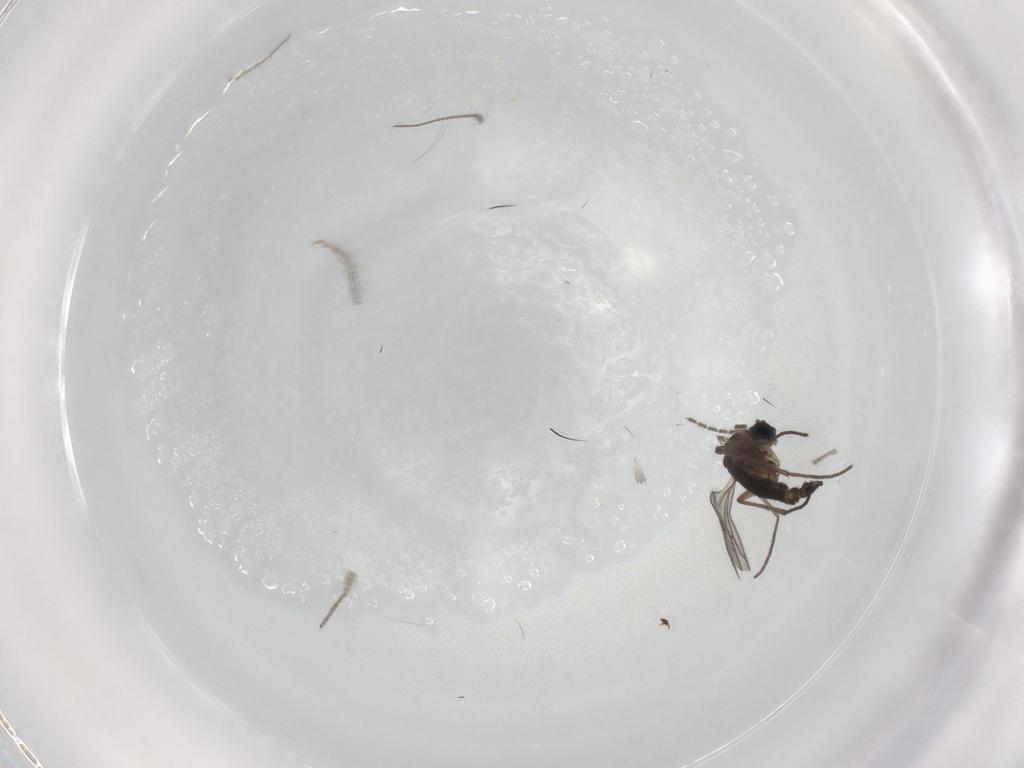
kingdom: Animalia
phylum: Arthropoda
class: Insecta
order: Diptera
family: Sciaridae
